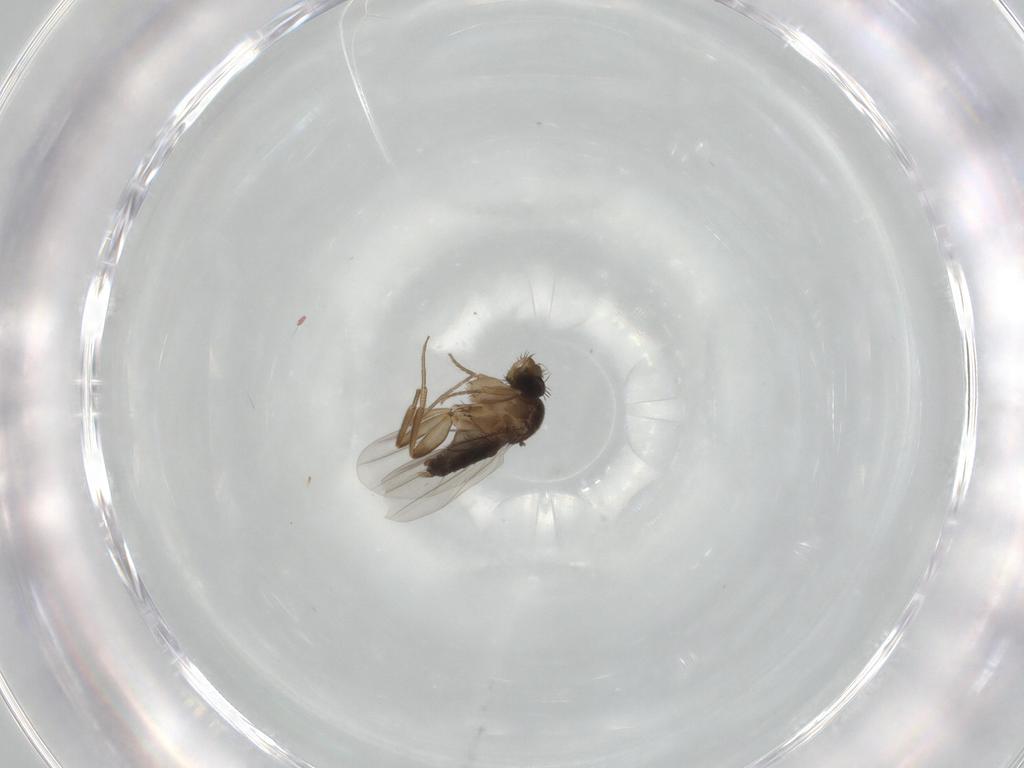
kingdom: Animalia
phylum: Arthropoda
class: Insecta
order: Diptera
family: Phoridae
